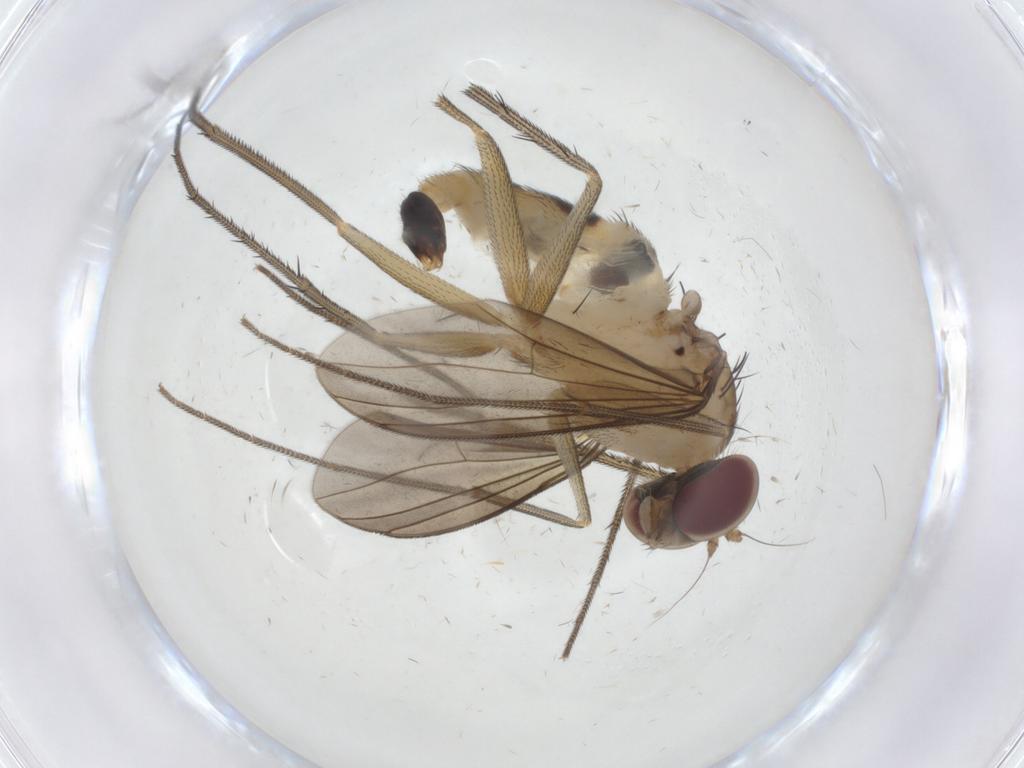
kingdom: Animalia
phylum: Arthropoda
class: Insecta
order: Diptera
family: Dolichopodidae
